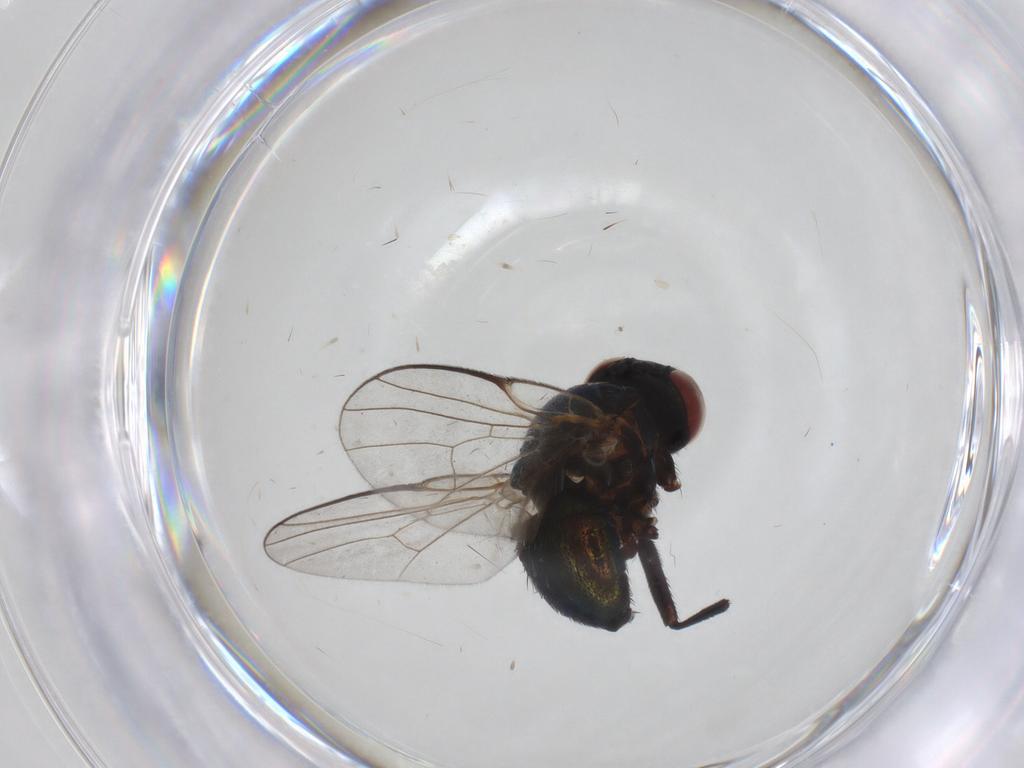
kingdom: Animalia
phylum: Arthropoda
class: Insecta
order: Diptera
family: Agromyzidae
